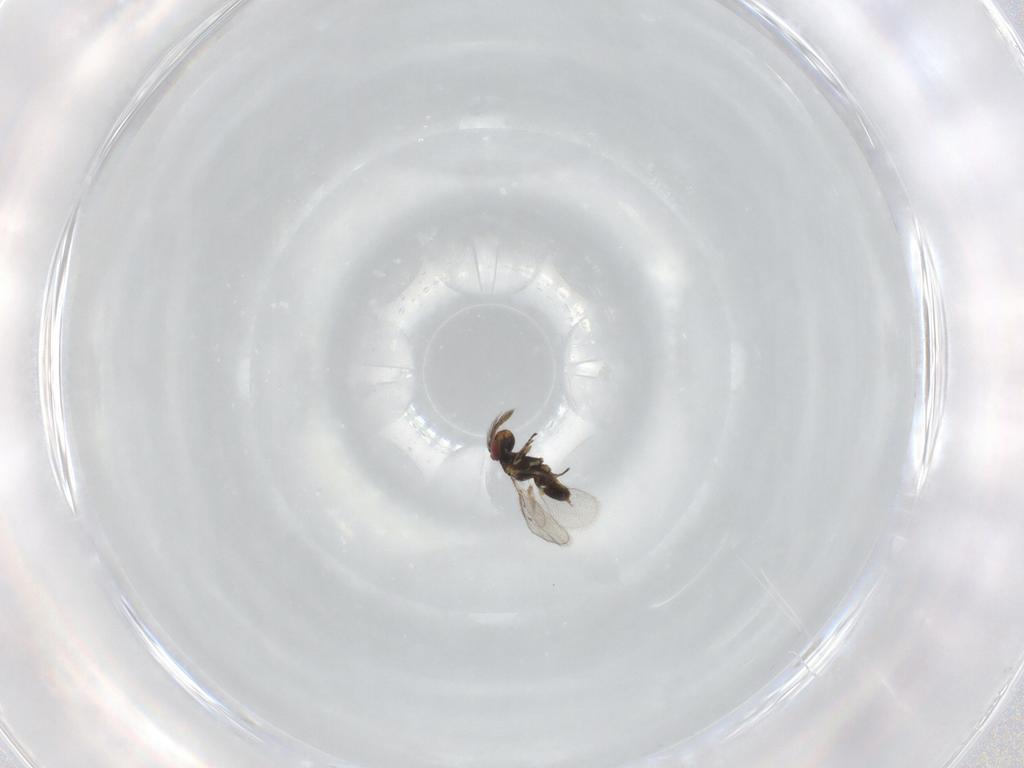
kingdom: Animalia
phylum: Arthropoda
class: Insecta
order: Hymenoptera
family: Eulophidae
